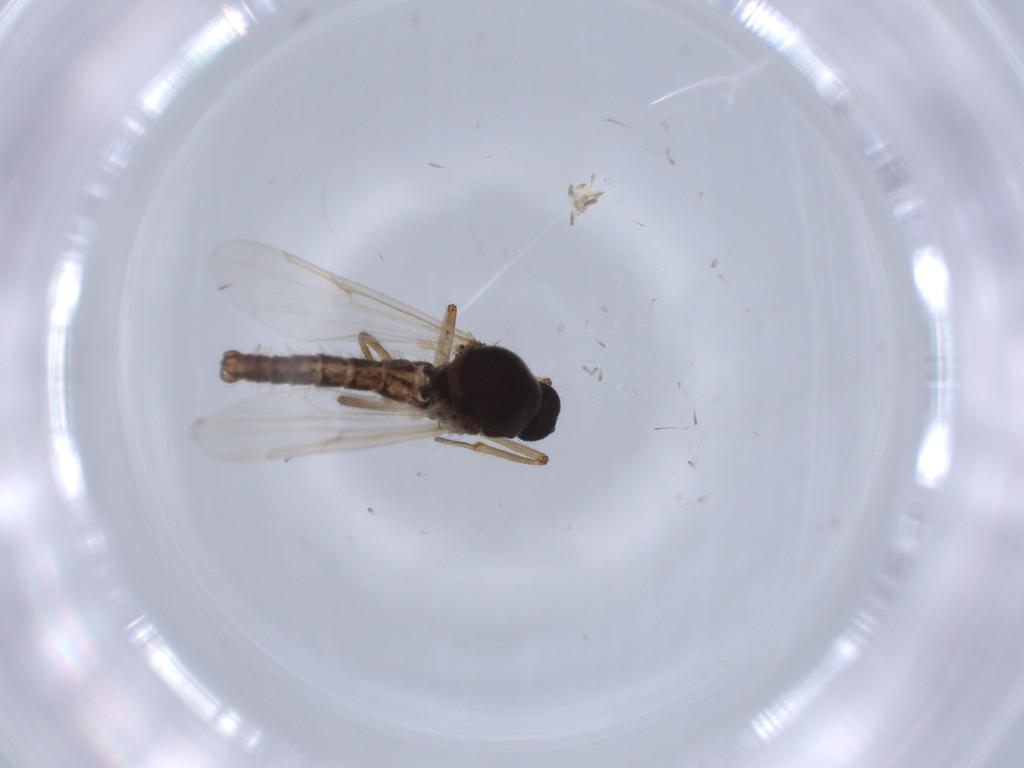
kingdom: Animalia
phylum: Arthropoda
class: Insecta
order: Diptera
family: Ceratopogonidae
